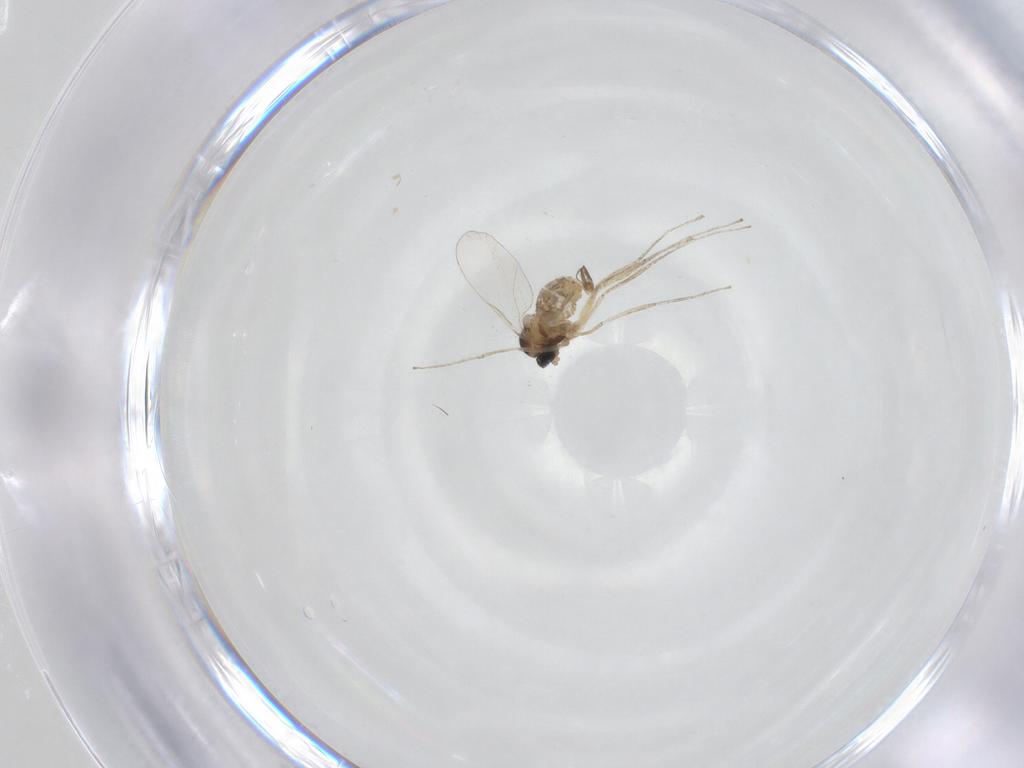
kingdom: Animalia
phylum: Arthropoda
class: Insecta
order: Diptera
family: Cecidomyiidae
